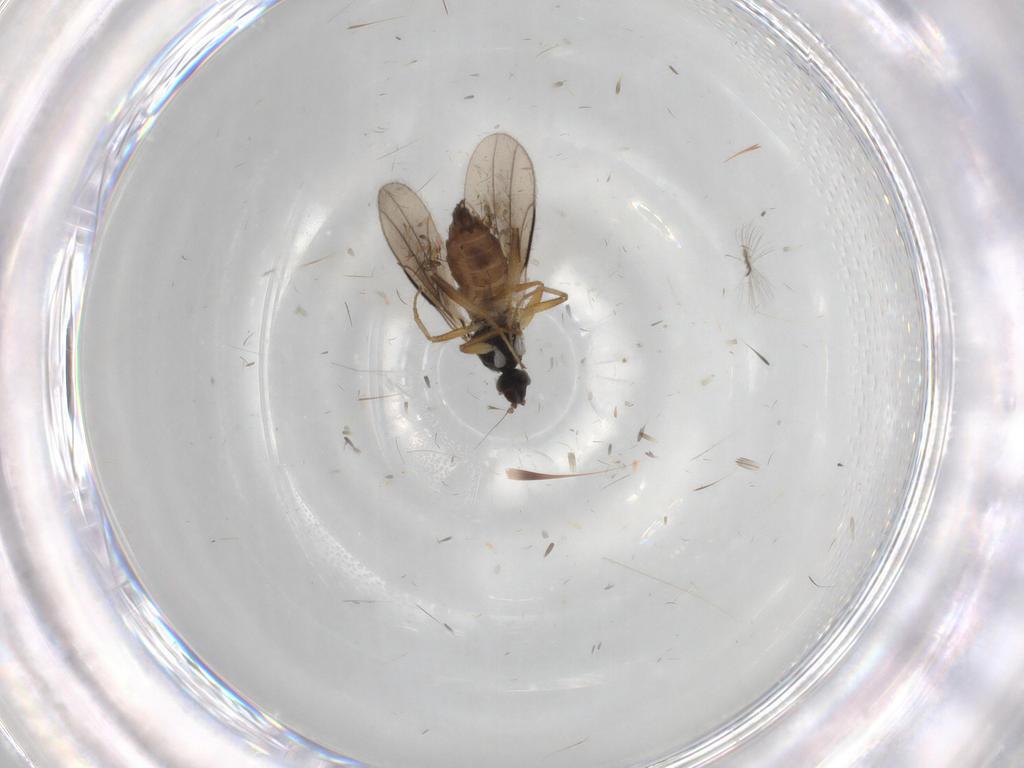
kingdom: Animalia
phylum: Arthropoda
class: Insecta
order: Diptera
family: Hybotidae
